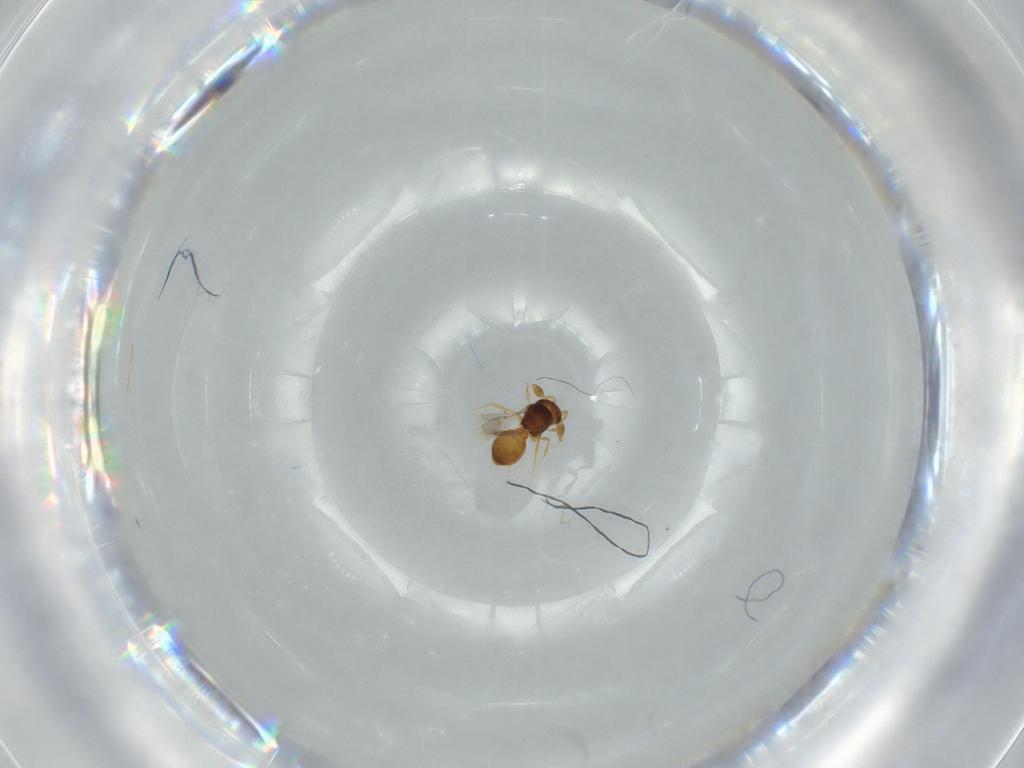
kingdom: Animalia
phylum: Arthropoda
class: Insecta
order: Hymenoptera
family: Scelionidae
